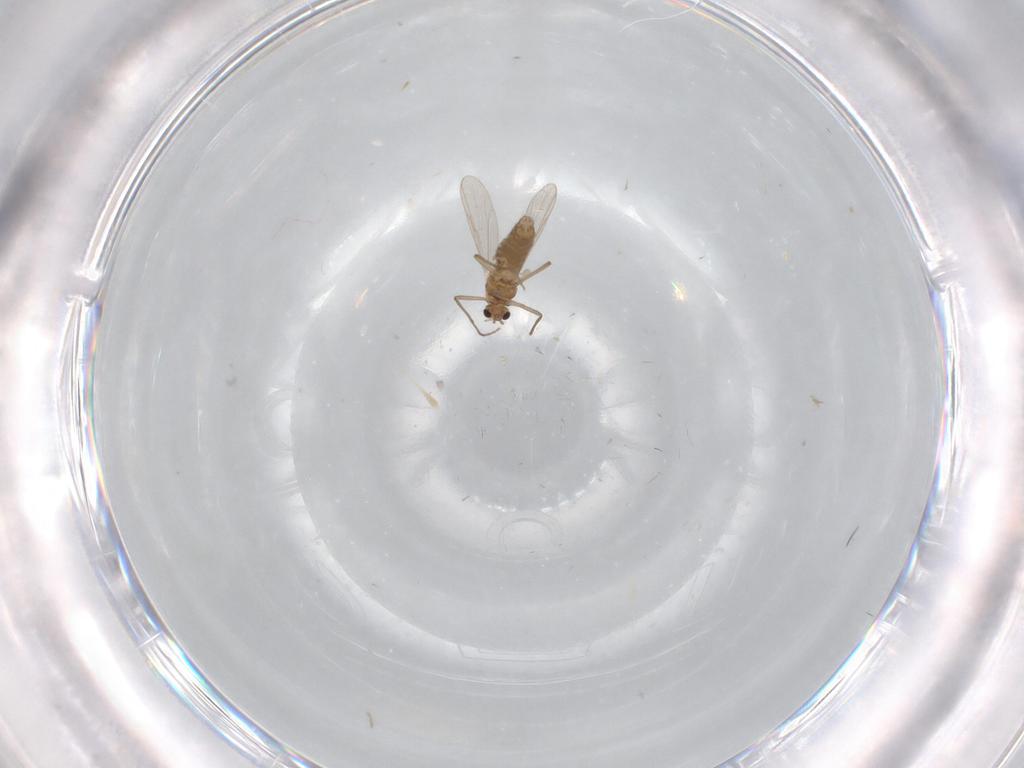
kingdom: Animalia
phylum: Arthropoda
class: Insecta
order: Diptera
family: Chironomidae
